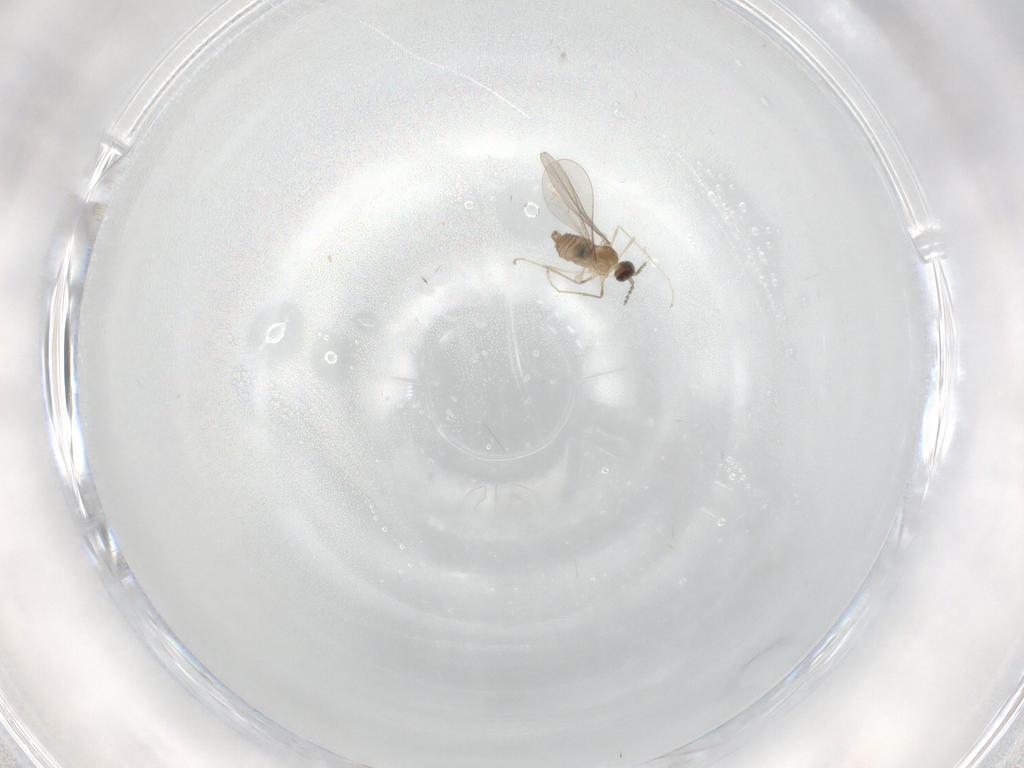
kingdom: Animalia
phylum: Arthropoda
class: Insecta
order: Diptera
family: Cecidomyiidae
